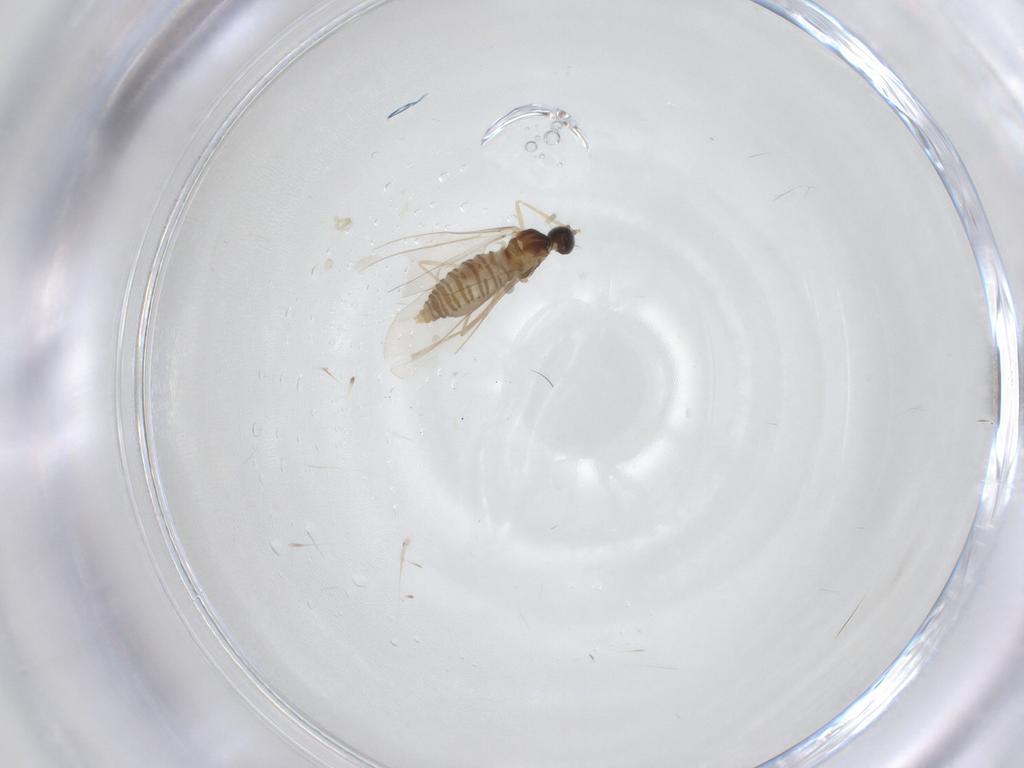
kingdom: Animalia
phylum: Arthropoda
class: Insecta
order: Diptera
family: Cecidomyiidae
